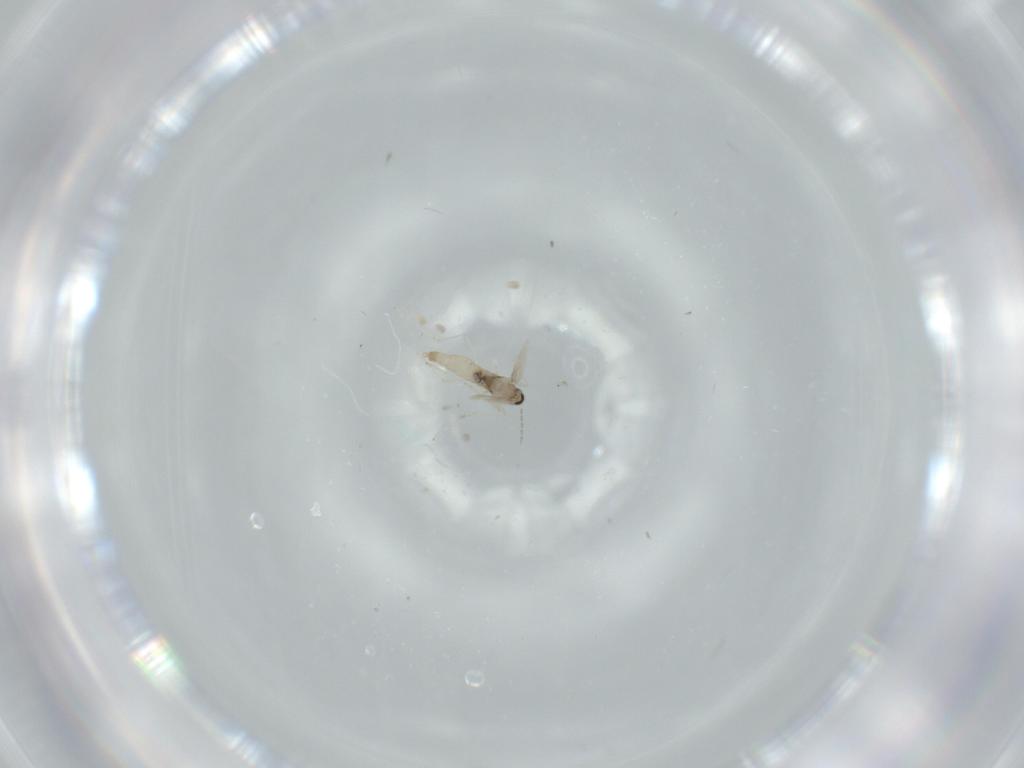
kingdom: Animalia
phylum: Arthropoda
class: Insecta
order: Diptera
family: Cecidomyiidae
